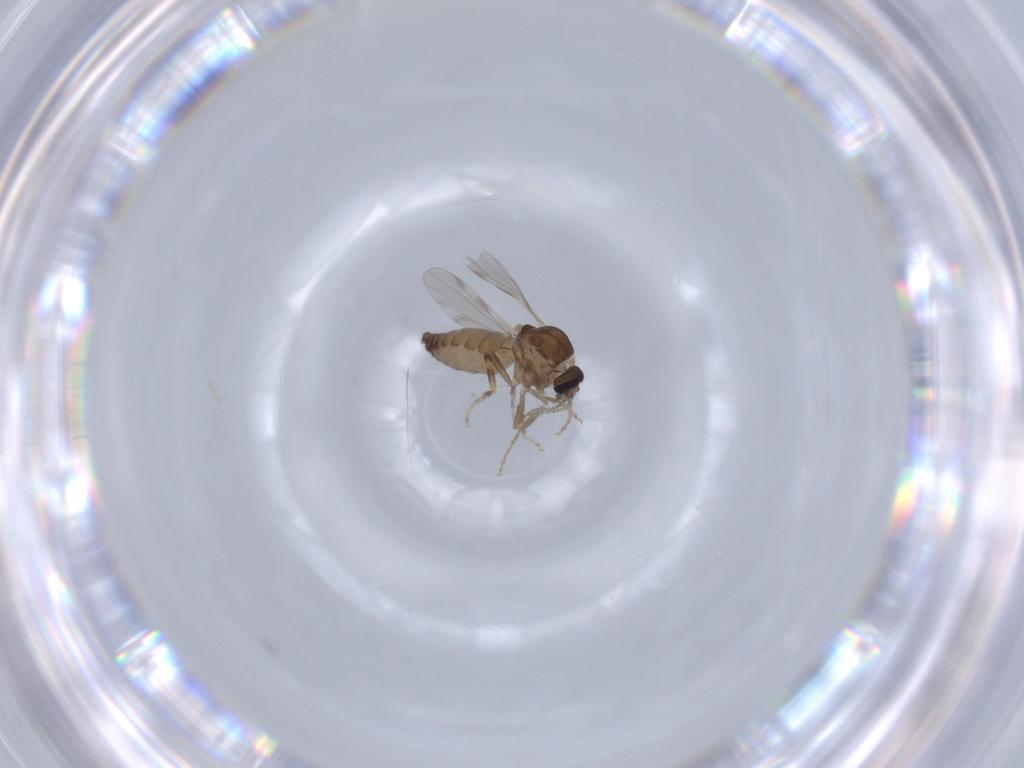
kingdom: Animalia
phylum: Arthropoda
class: Insecta
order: Diptera
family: Ceratopogonidae
